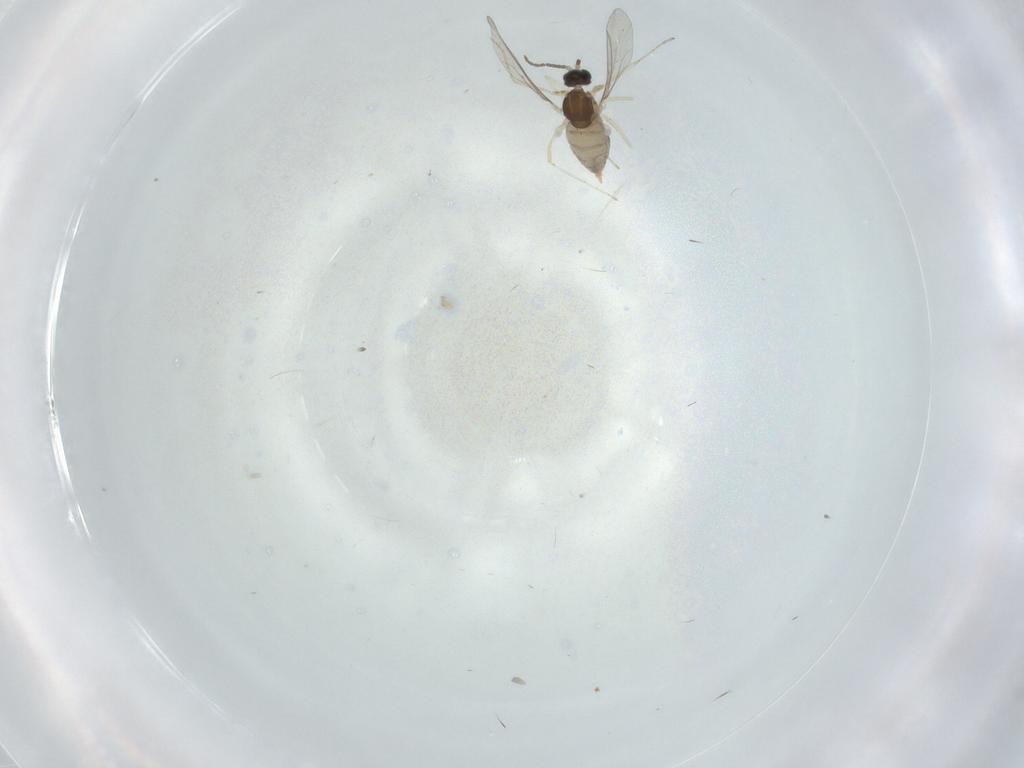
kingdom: Animalia
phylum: Arthropoda
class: Insecta
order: Diptera
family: Cecidomyiidae
